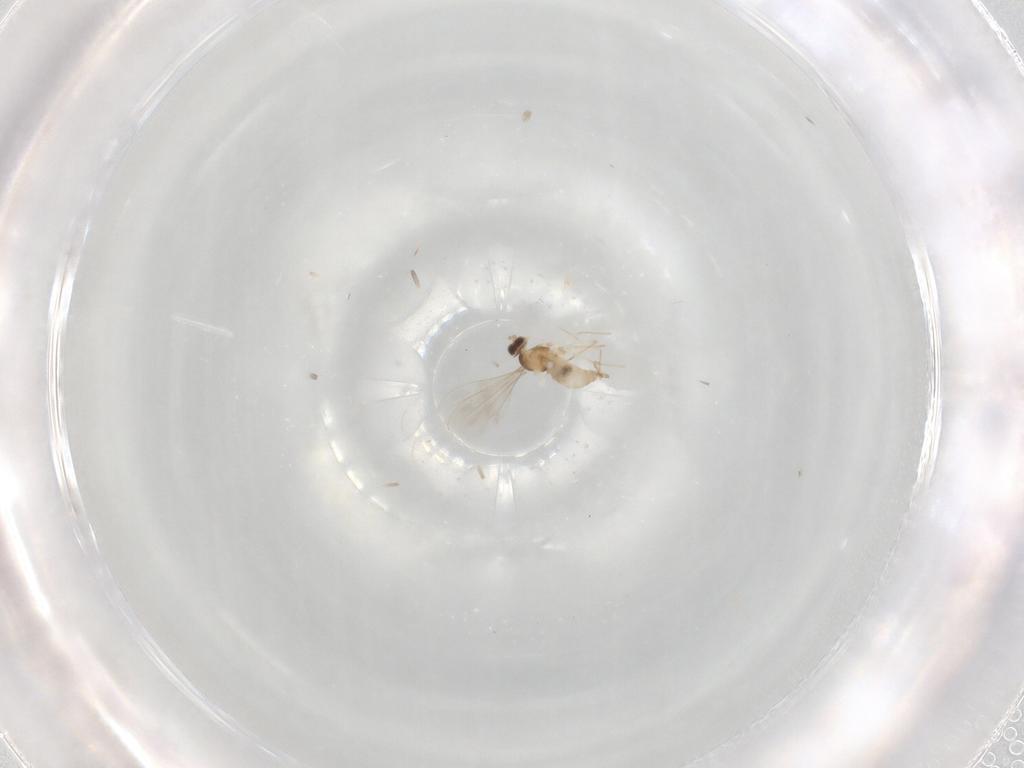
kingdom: Animalia
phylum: Arthropoda
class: Insecta
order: Diptera
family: Cecidomyiidae
